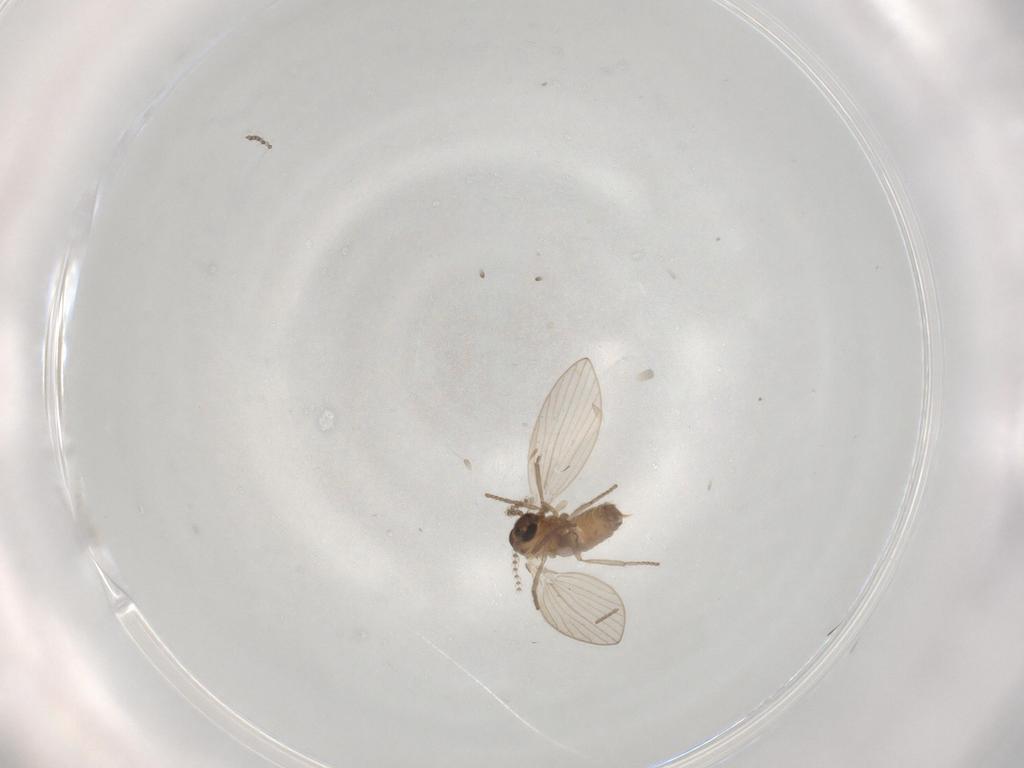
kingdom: Animalia
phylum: Arthropoda
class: Insecta
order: Diptera
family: Psychodidae
